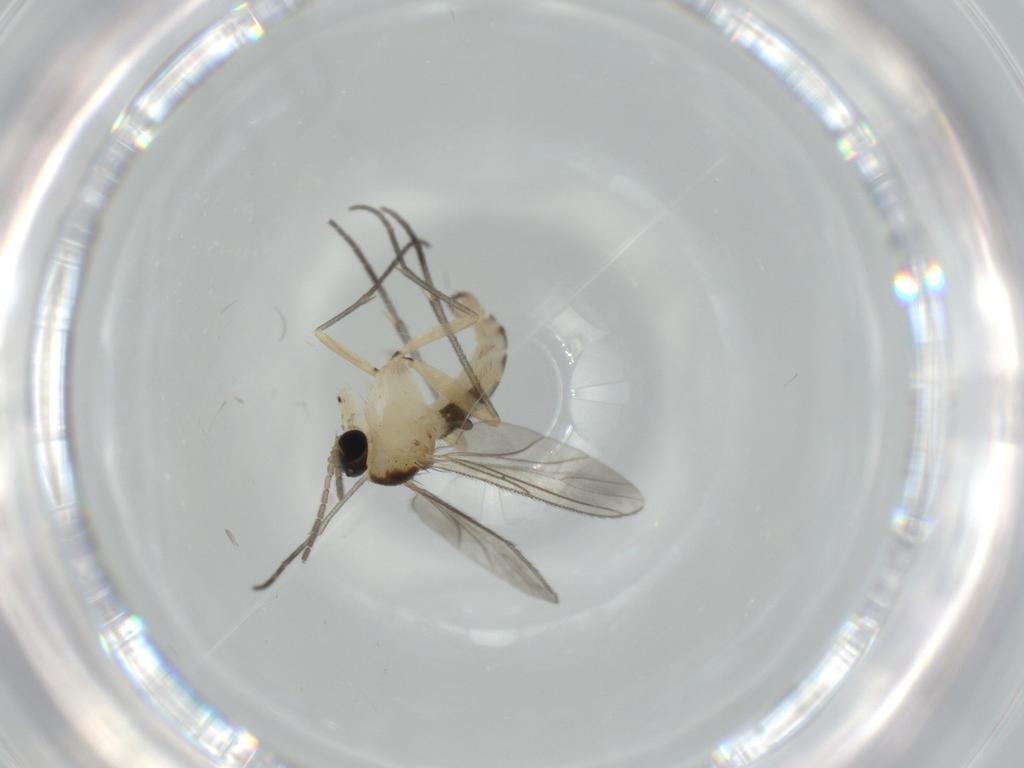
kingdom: Animalia
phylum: Arthropoda
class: Insecta
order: Diptera
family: Sciaridae
